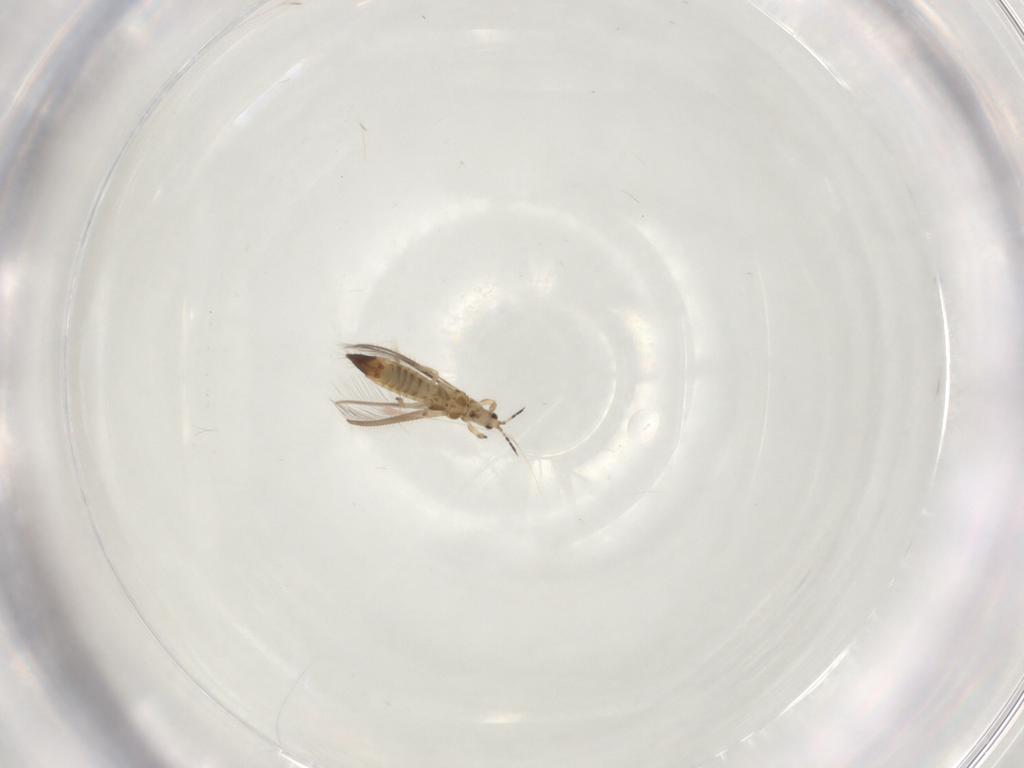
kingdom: Animalia
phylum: Arthropoda
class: Insecta
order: Thysanoptera
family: Thripidae
